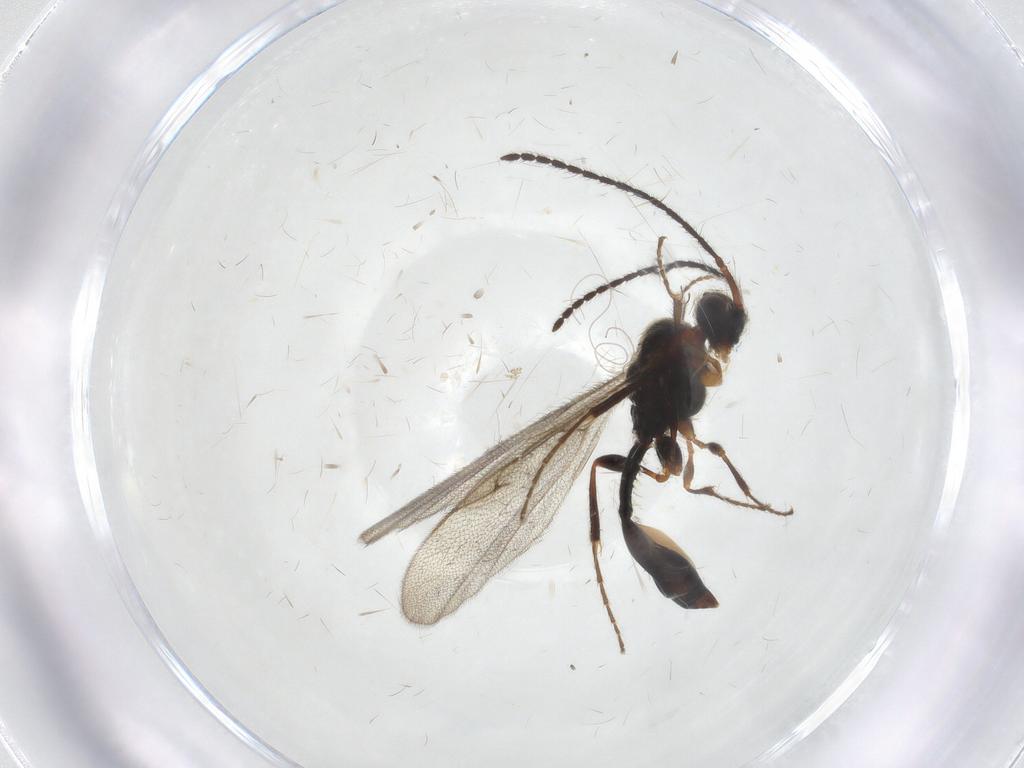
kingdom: Animalia
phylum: Arthropoda
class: Insecta
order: Hymenoptera
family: Diapriidae
